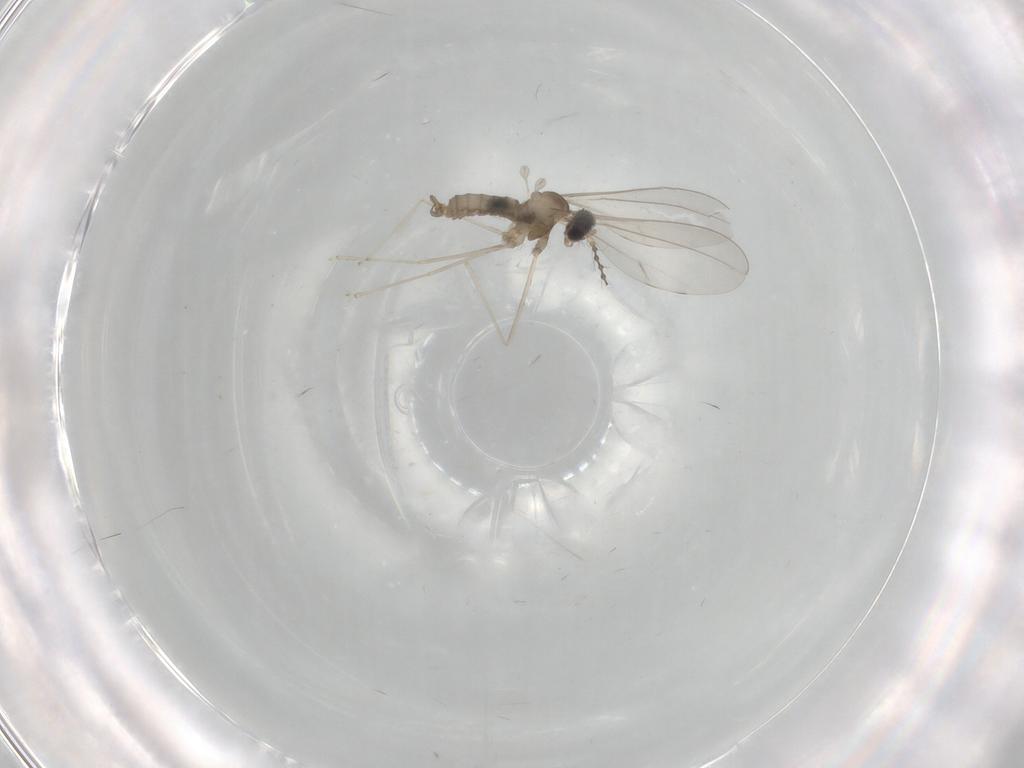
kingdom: Animalia
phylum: Arthropoda
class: Insecta
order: Diptera
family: Cecidomyiidae
